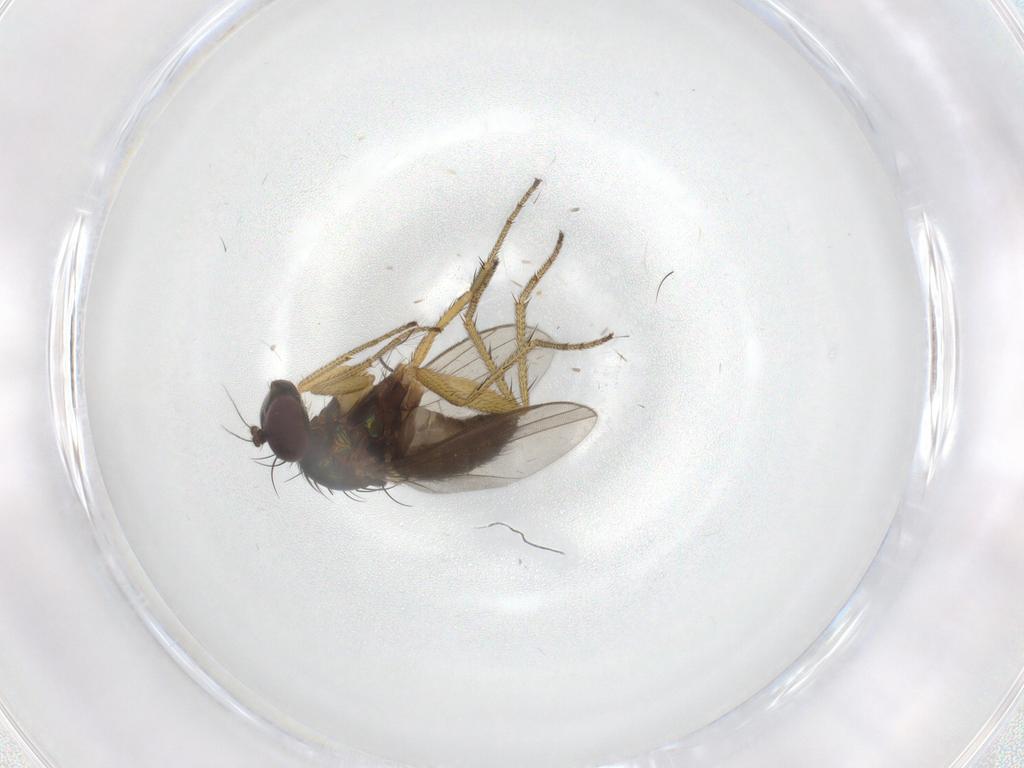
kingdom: Animalia
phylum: Arthropoda
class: Insecta
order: Diptera
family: Dolichopodidae
